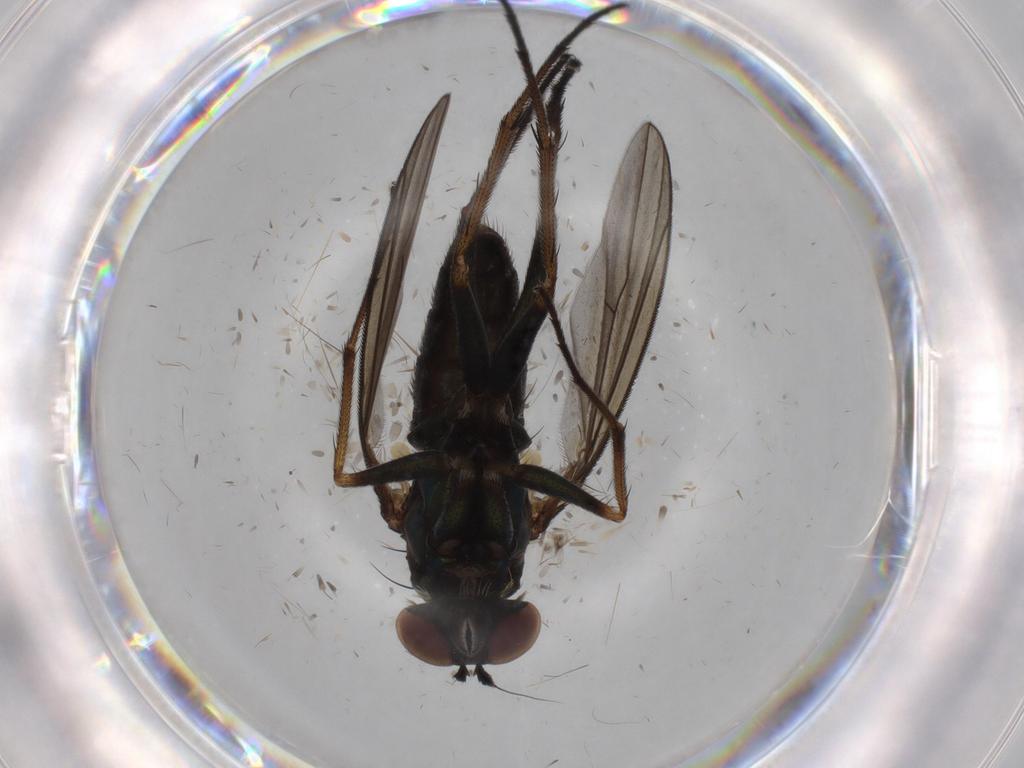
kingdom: Animalia
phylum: Arthropoda
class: Insecta
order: Diptera
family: Dolichopodidae
